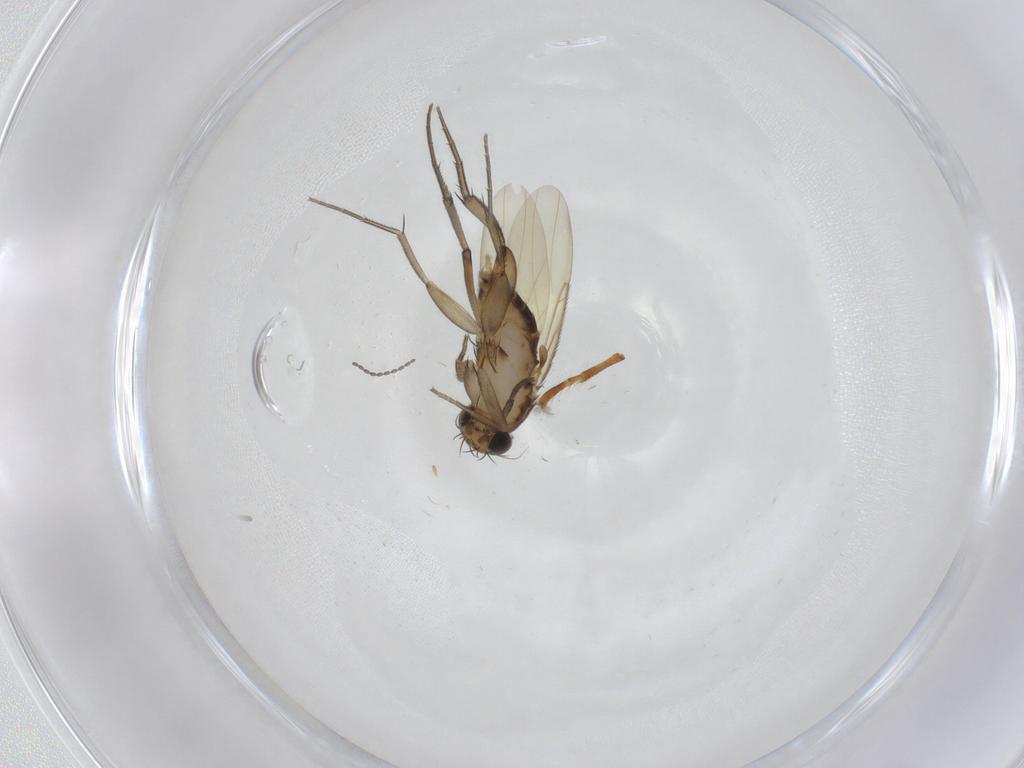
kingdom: Animalia
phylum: Arthropoda
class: Insecta
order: Diptera
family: Phoridae
